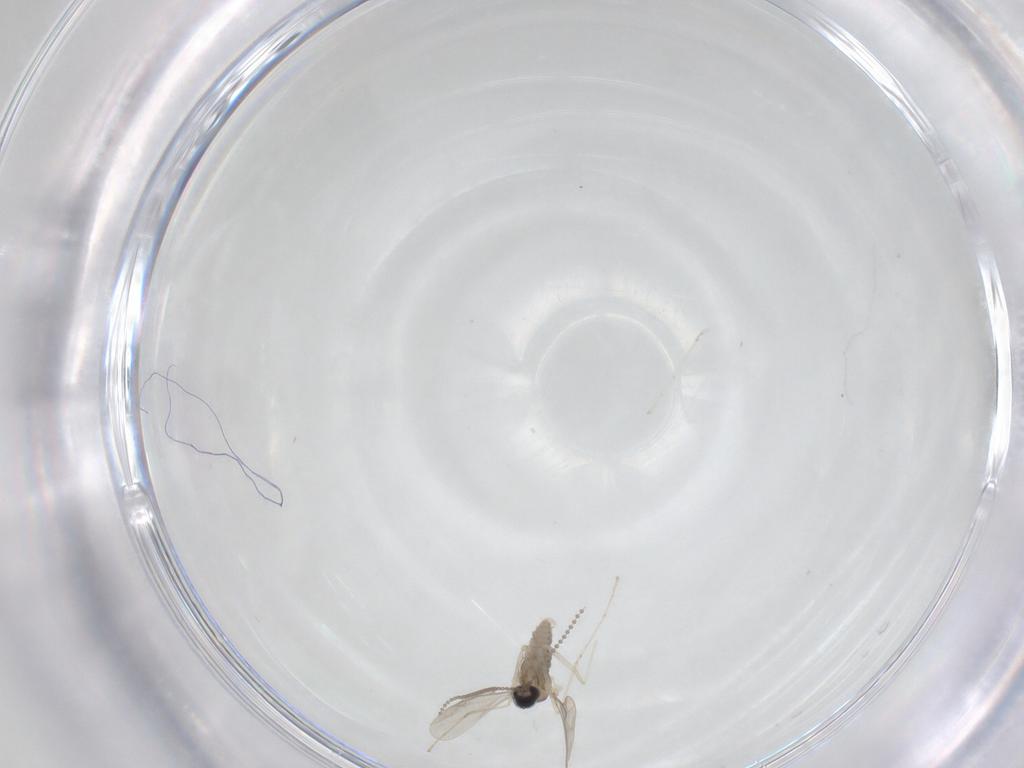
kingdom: Animalia
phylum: Arthropoda
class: Insecta
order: Diptera
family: Cecidomyiidae
